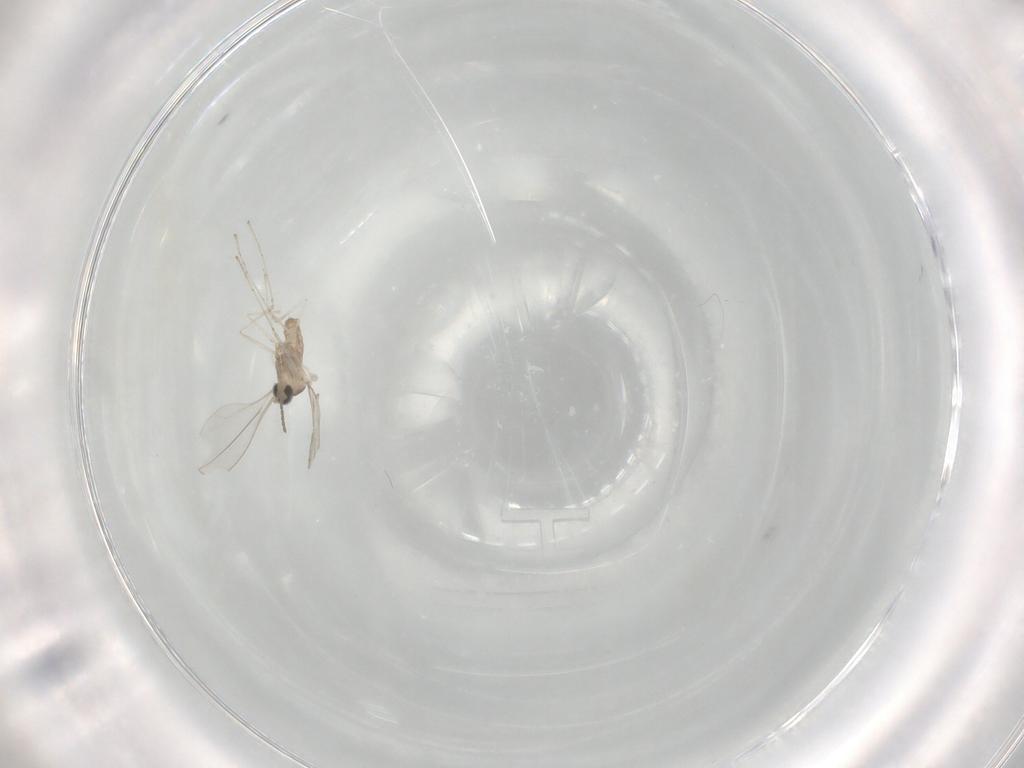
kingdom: Animalia
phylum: Arthropoda
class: Insecta
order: Diptera
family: Cecidomyiidae
